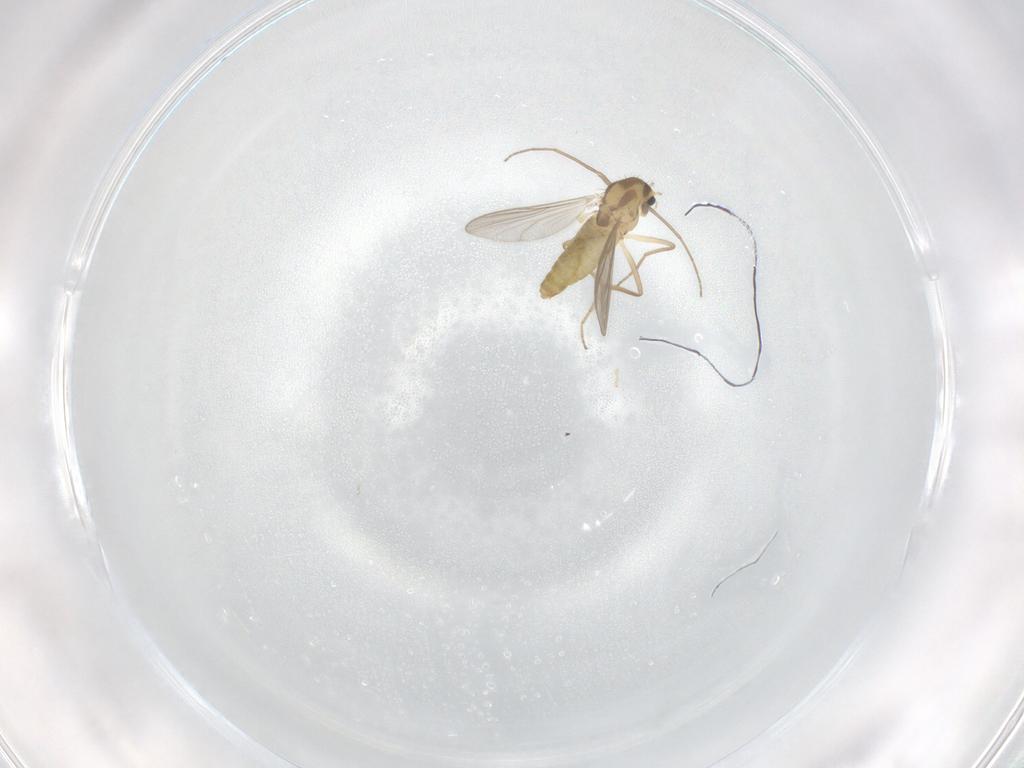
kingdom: Animalia
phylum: Arthropoda
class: Insecta
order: Diptera
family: Chironomidae
